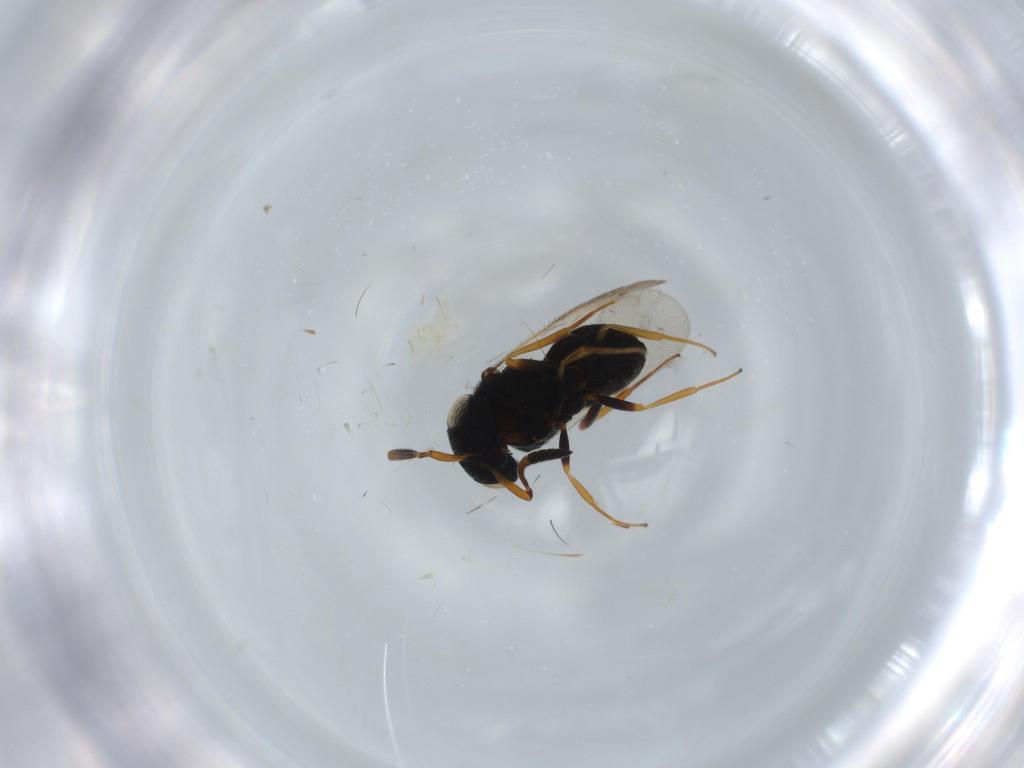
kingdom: Animalia
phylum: Arthropoda
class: Insecta
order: Hymenoptera
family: Scelionidae
